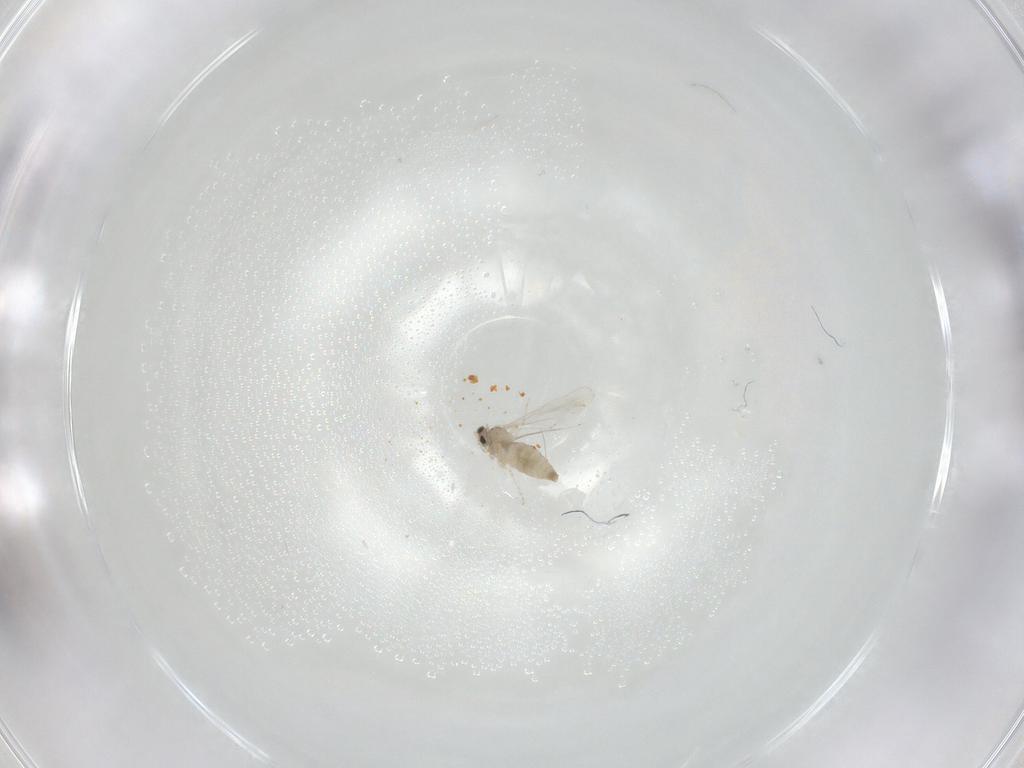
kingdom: Animalia
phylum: Arthropoda
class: Insecta
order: Diptera
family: Cecidomyiidae
